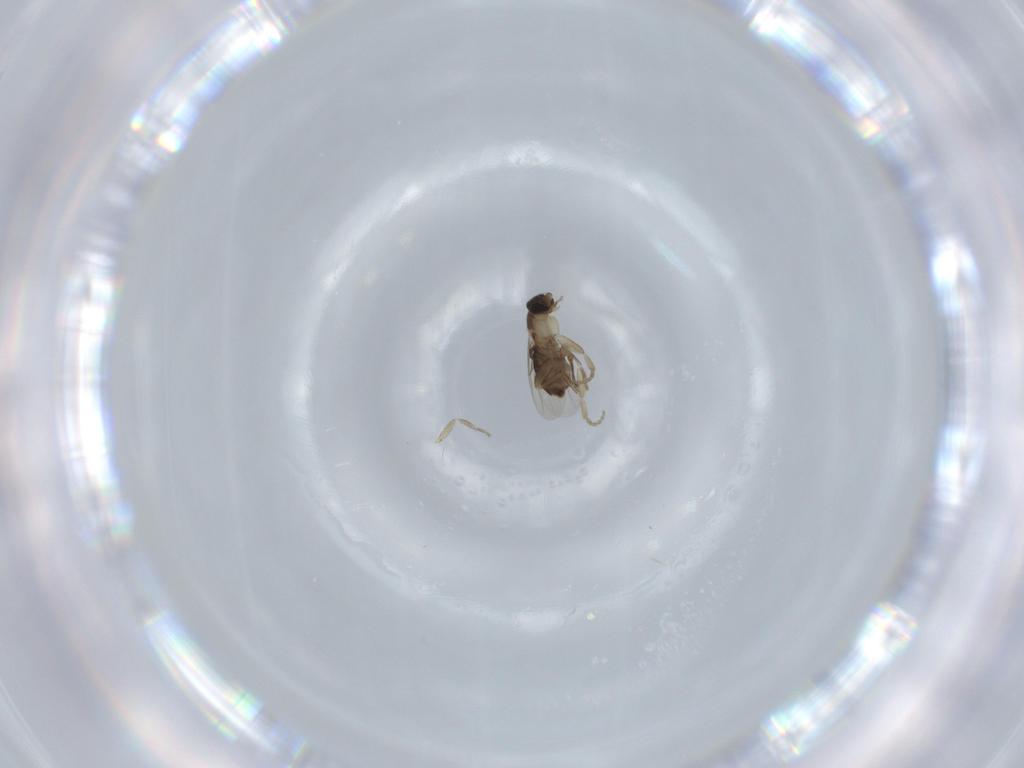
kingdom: Animalia
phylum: Arthropoda
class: Insecta
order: Diptera
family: Phoridae
